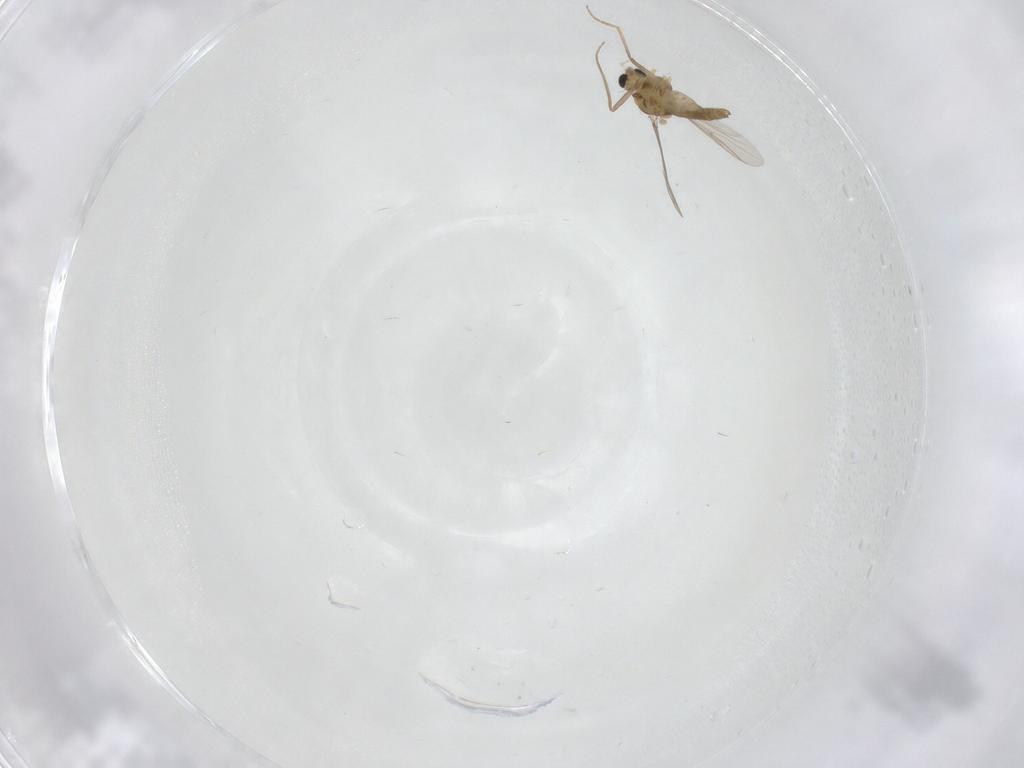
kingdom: Animalia
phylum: Arthropoda
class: Insecta
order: Diptera
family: Chironomidae
